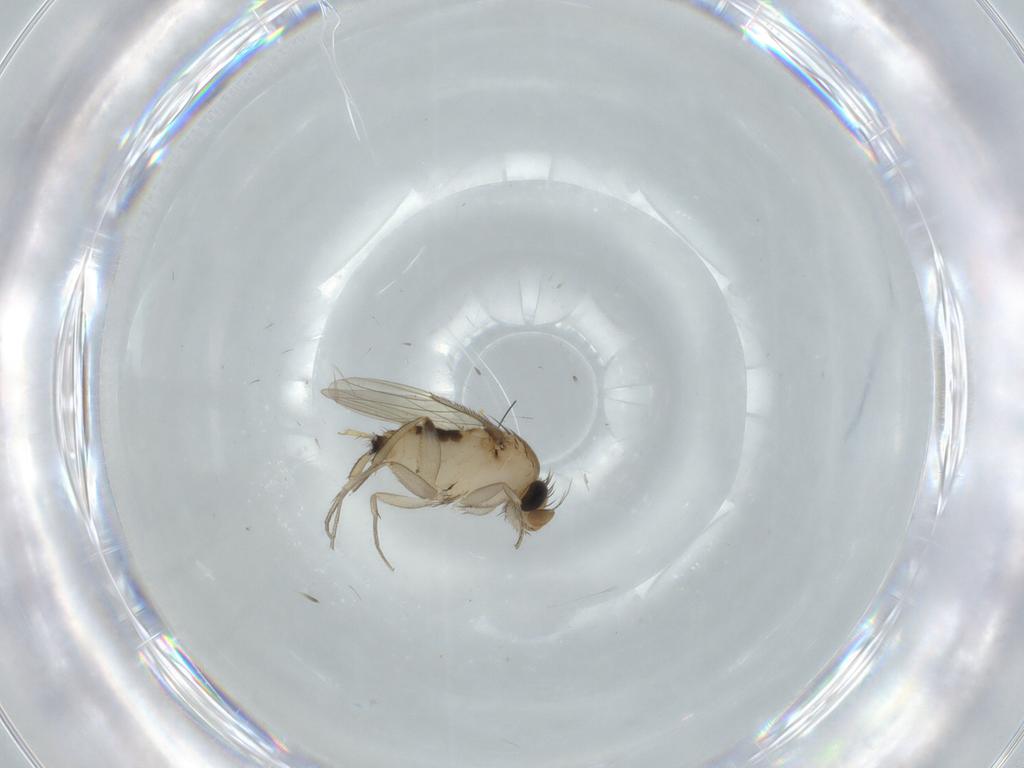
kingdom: Animalia
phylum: Arthropoda
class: Insecta
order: Diptera
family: Phoridae
